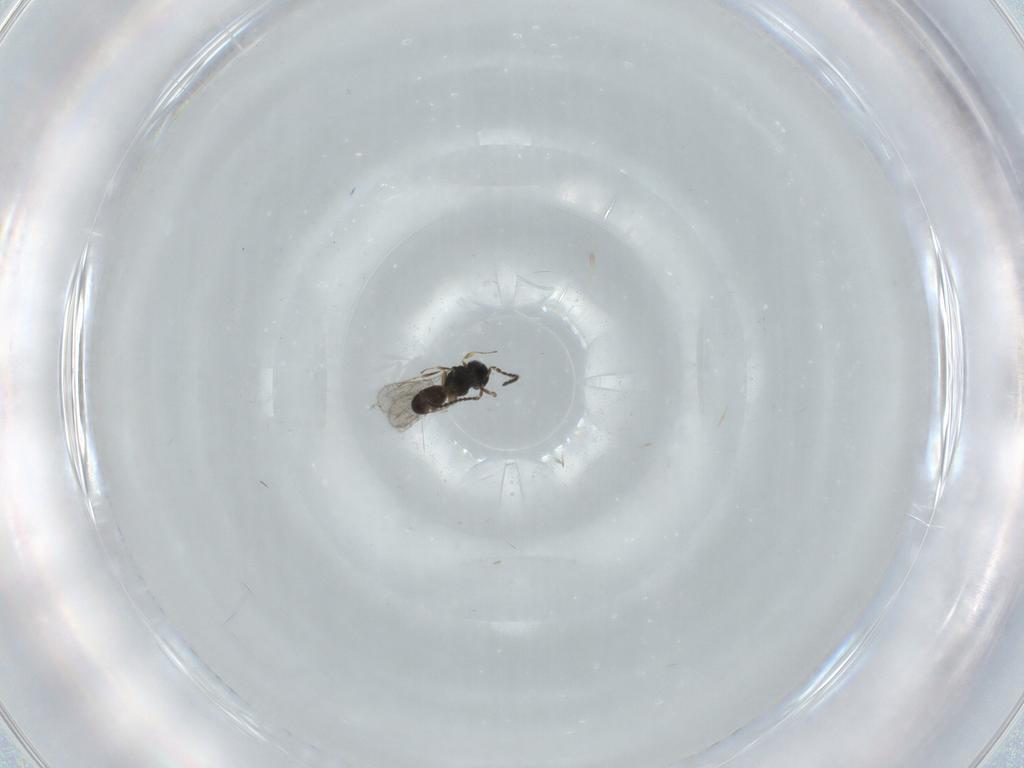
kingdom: Animalia
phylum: Arthropoda
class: Insecta
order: Hymenoptera
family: Scelionidae
